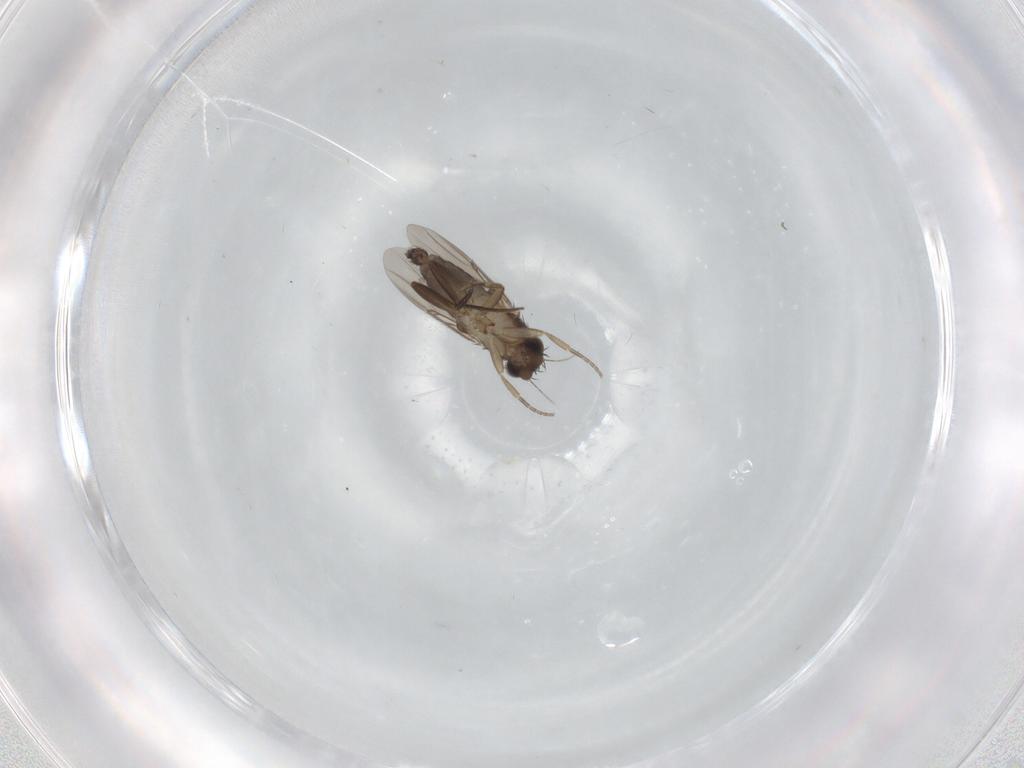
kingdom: Animalia
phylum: Arthropoda
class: Insecta
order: Diptera
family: Phoridae
